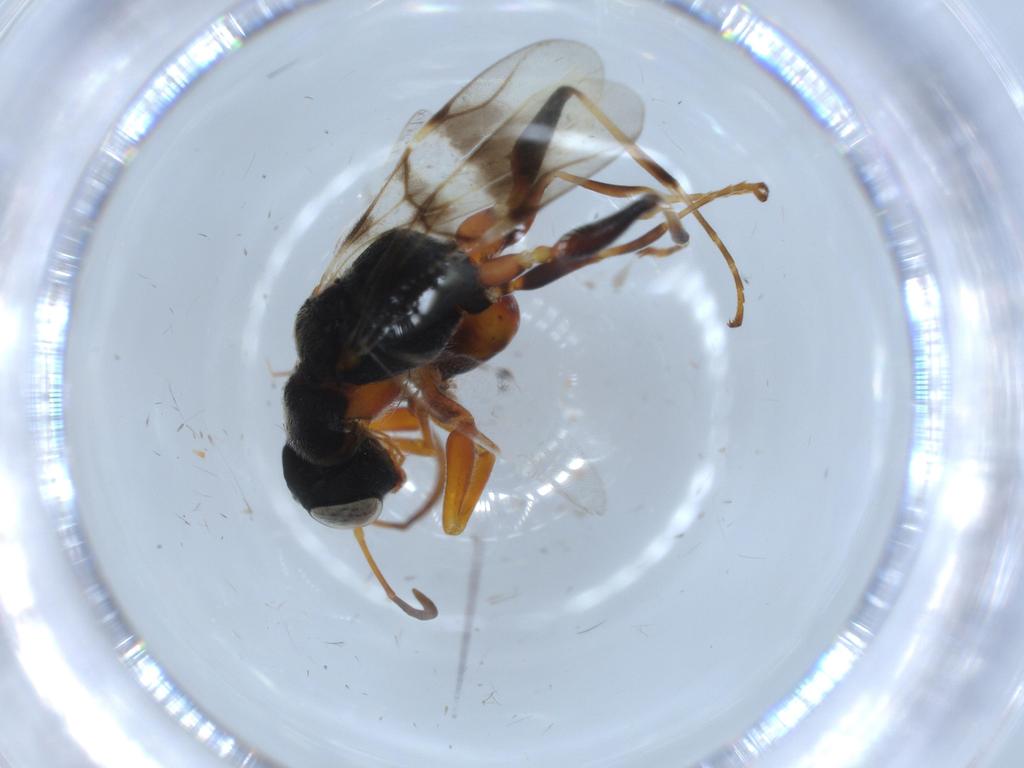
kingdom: Animalia
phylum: Arthropoda
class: Insecta
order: Hymenoptera
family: Dryinidae
